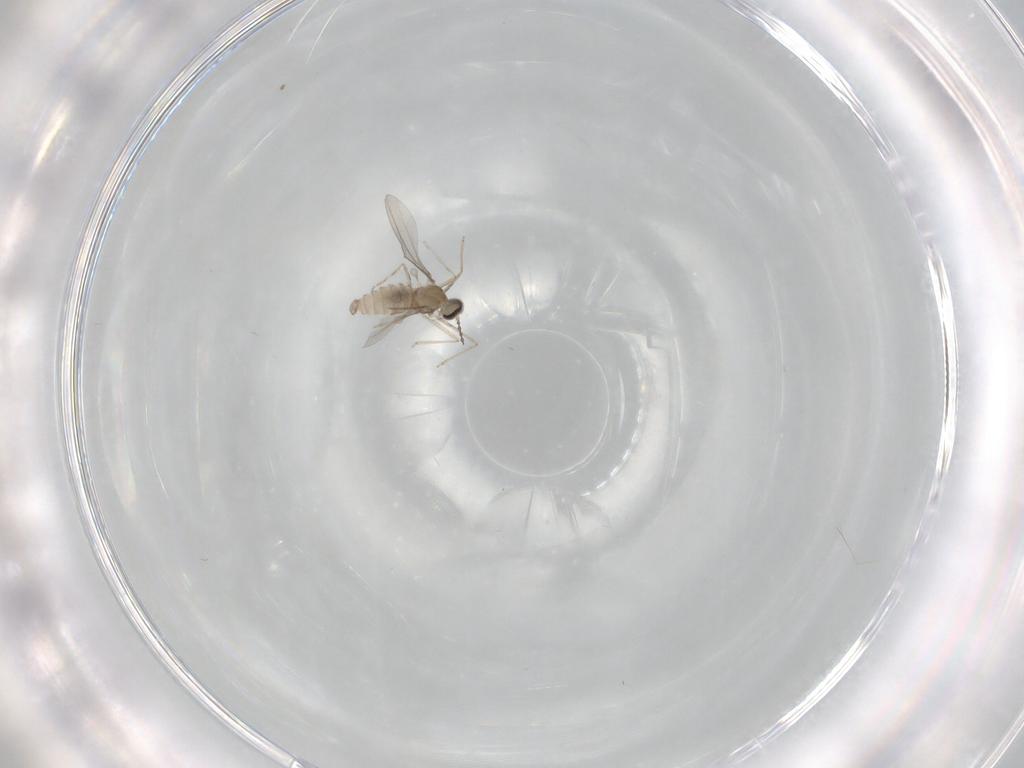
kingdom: Animalia
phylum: Arthropoda
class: Insecta
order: Diptera
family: Cecidomyiidae
